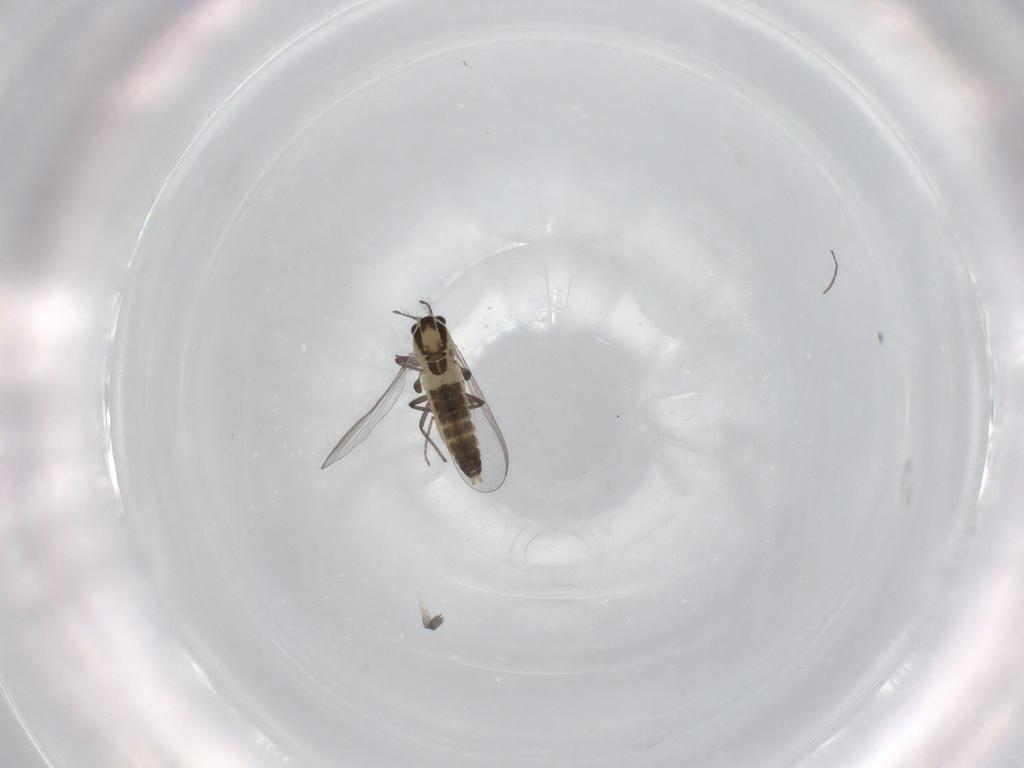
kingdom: Animalia
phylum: Arthropoda
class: Insecta
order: Diptera
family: Chironomidae
